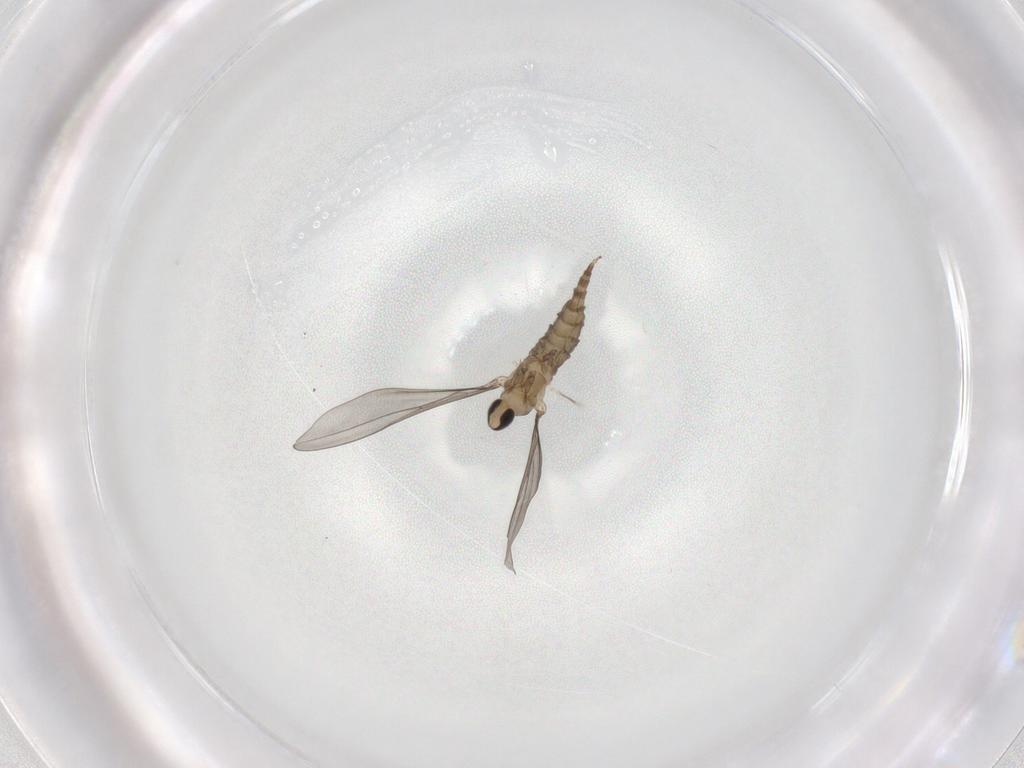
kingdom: Animalia
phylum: Arthropoda
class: Insecta
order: Diptera
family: Cecidomyiidae
